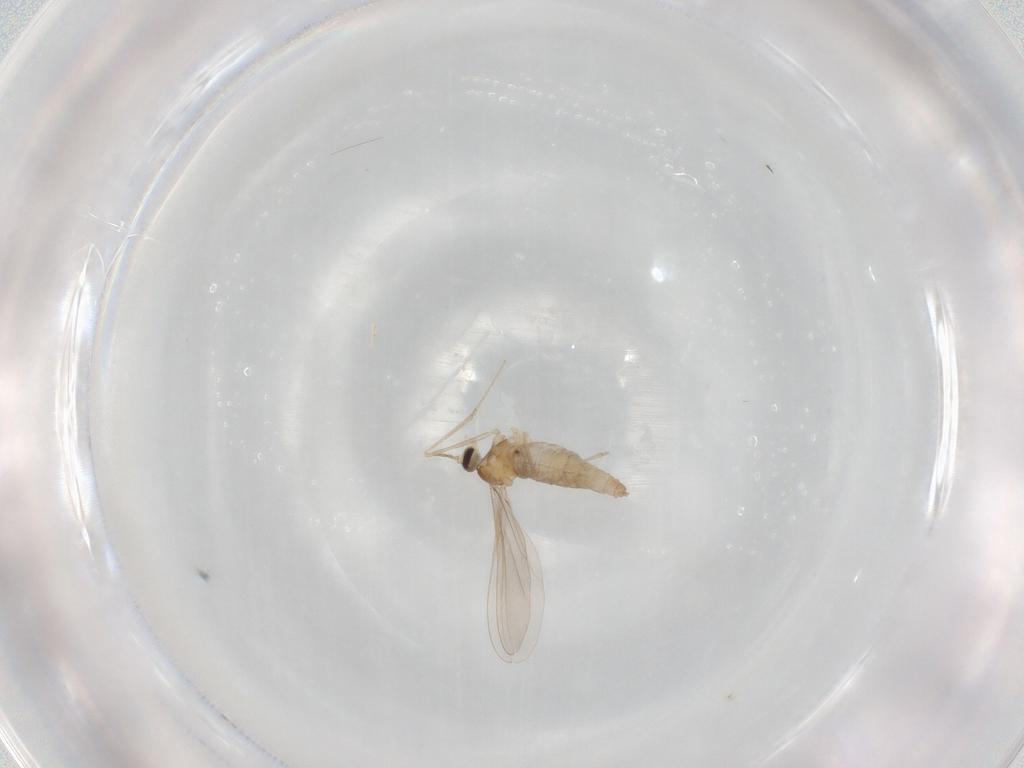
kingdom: Animalia
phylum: Arthropoda
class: Insecta
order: Diptera
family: Cecidomyiidae
